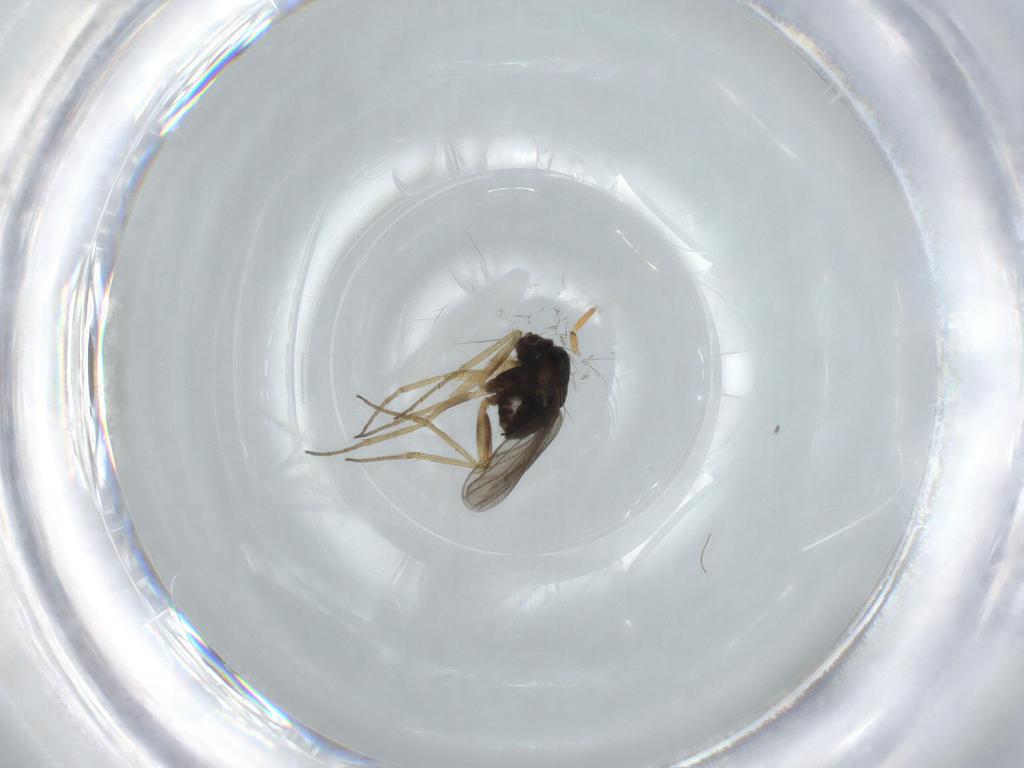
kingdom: Animalia
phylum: Arthropoda
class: Insecta
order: Diptera
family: Dolichopodidae
